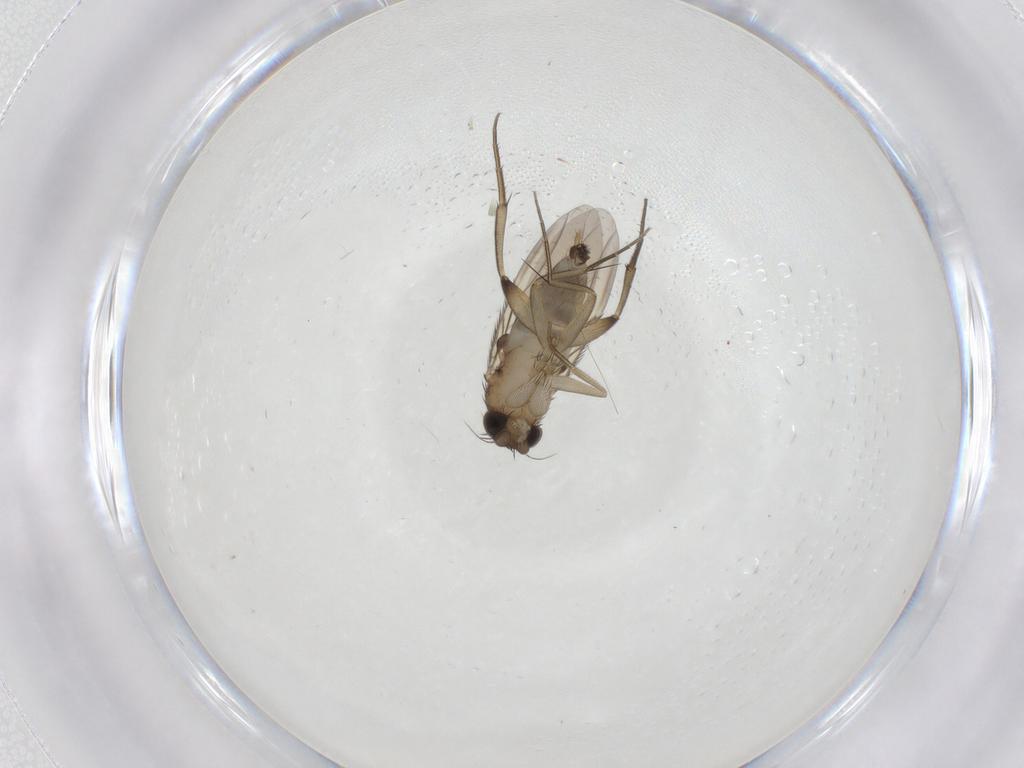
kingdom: Animalia
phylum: Arthropoda
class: Insecta
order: Diptera
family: Phoridae
